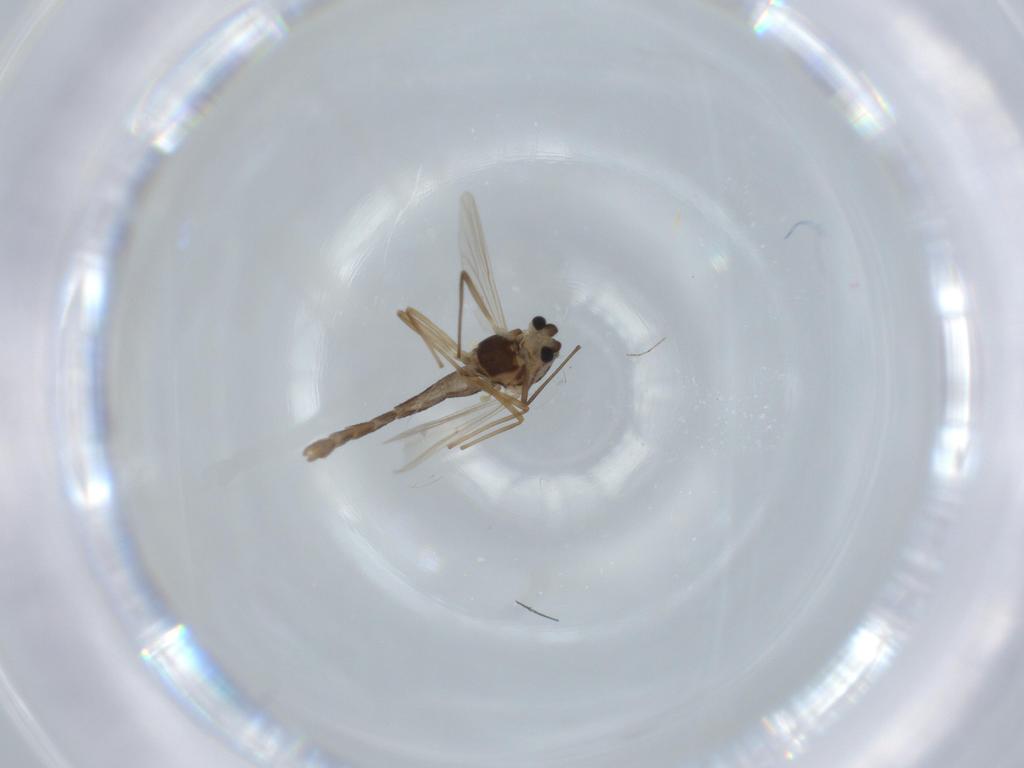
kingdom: Animalia
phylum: Arthropoda
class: Insecta
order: Diptera
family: Chironomidae
